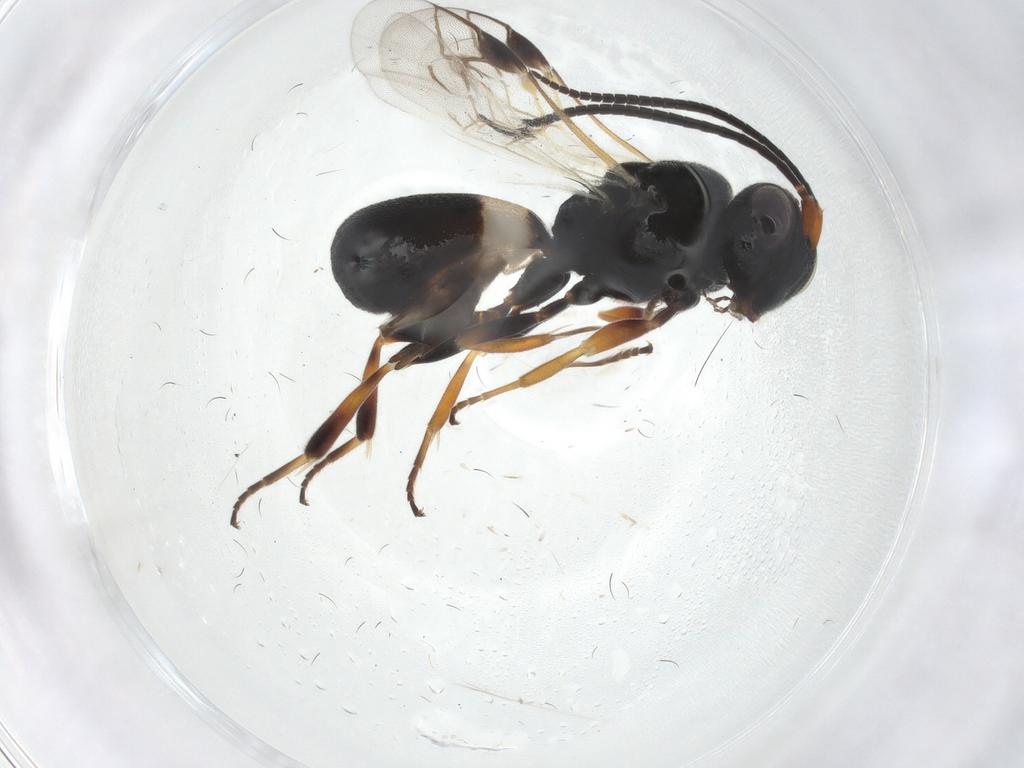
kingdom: Animalia
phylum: Arthropoda
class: Insecta
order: Hymenoptera
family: Braconidae
